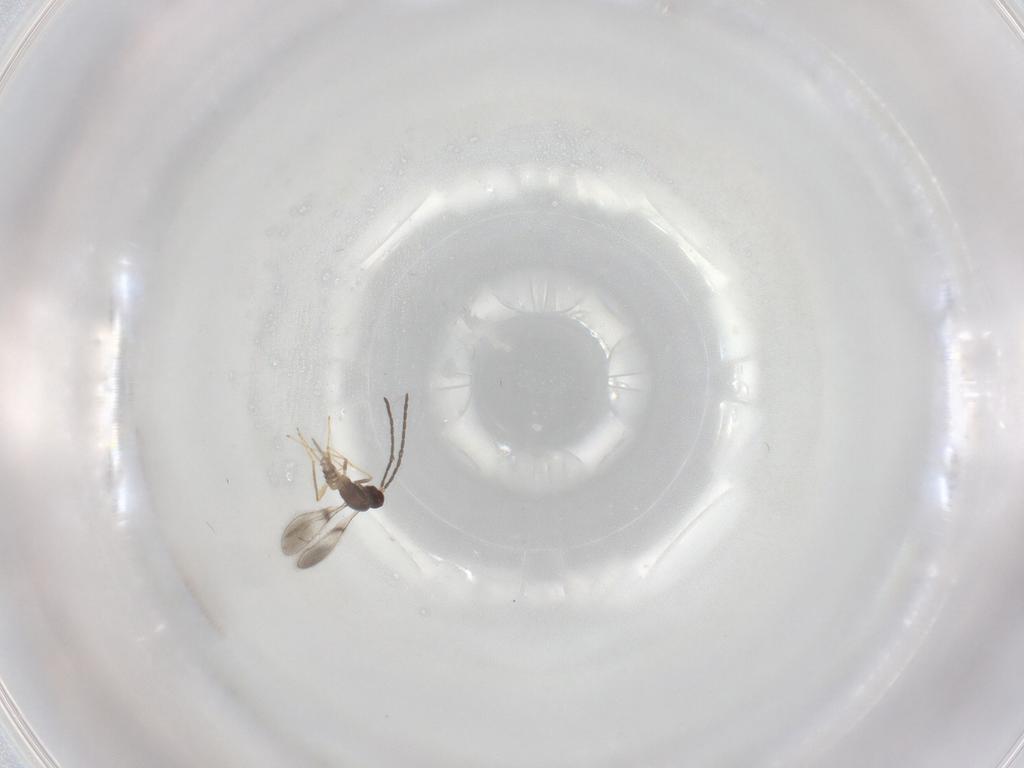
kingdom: Animalia
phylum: Arthropoda
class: Insecta
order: Hymenoptera
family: Mymaridae
